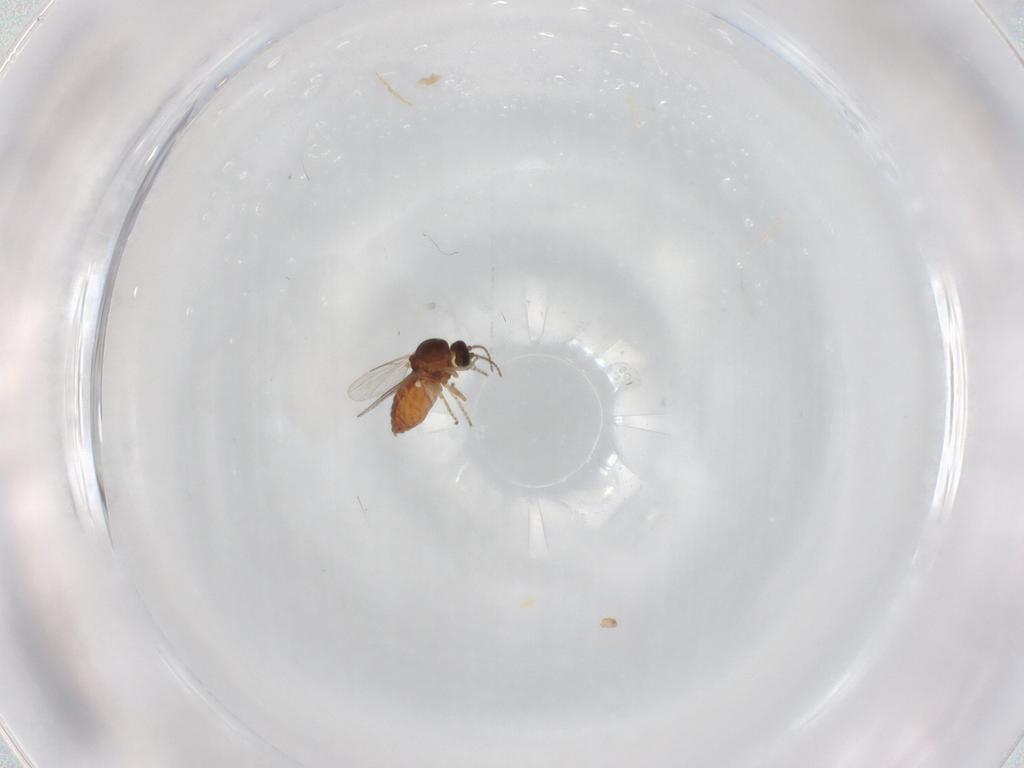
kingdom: Animalia
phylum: Arthropoda
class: Insecta
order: Diptera
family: Ceratopogonidae
